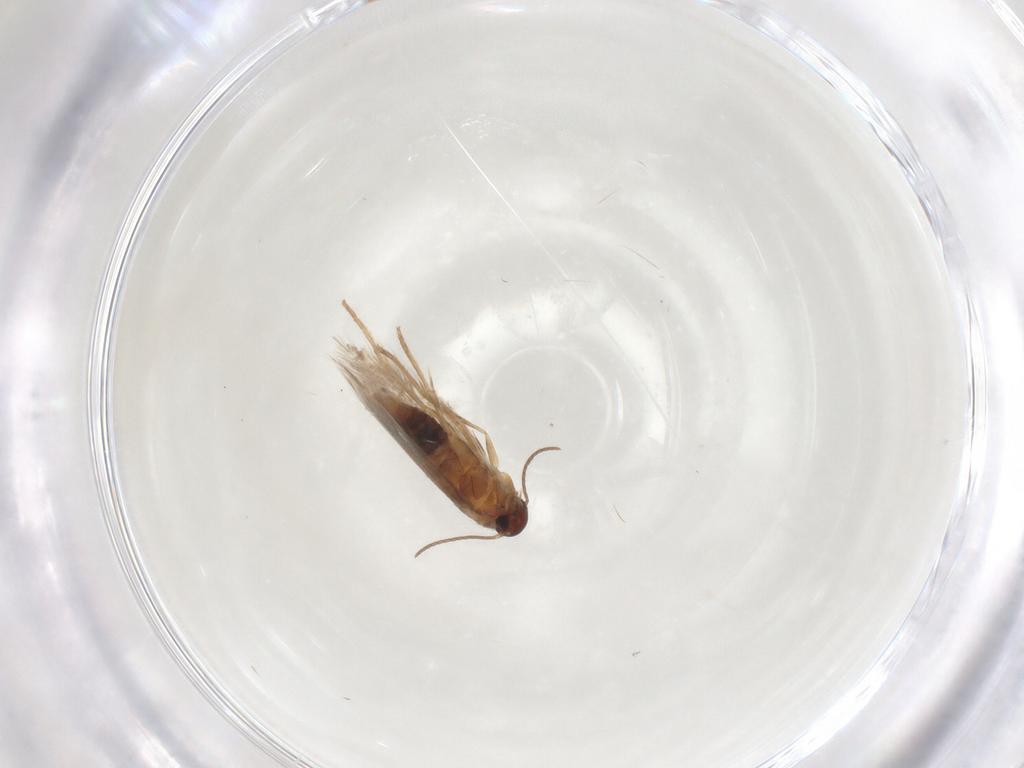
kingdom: Animalia
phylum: Arthropoda
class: Insecta
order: Lepidoptera
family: Heliozelidae
